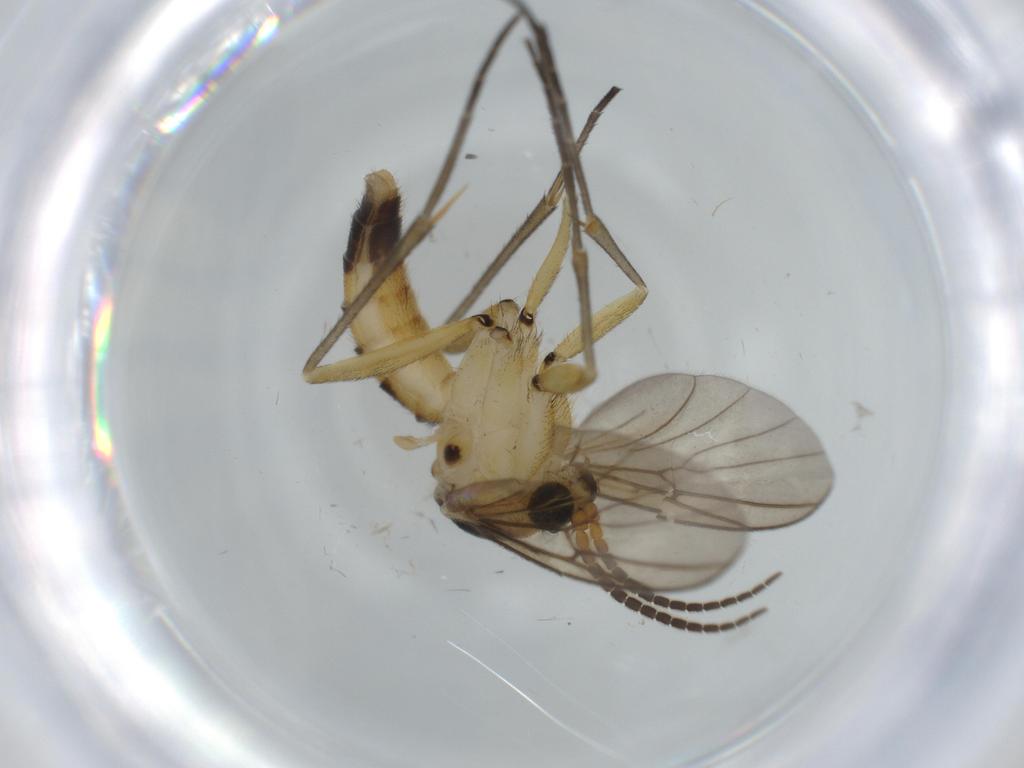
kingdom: Animalia
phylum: Arthropoda
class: Insecta
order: Diptera
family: Mycetophilidae
